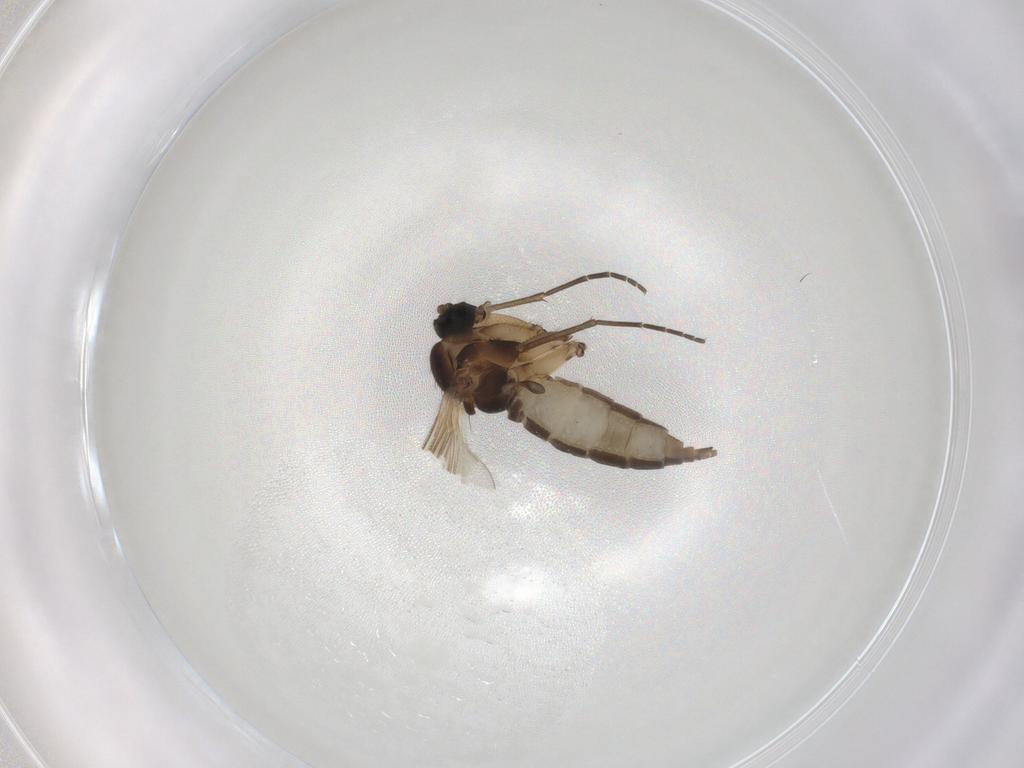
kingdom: Animalia
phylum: Arthropoda
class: Insecta
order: Diptera
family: Sciaridae
